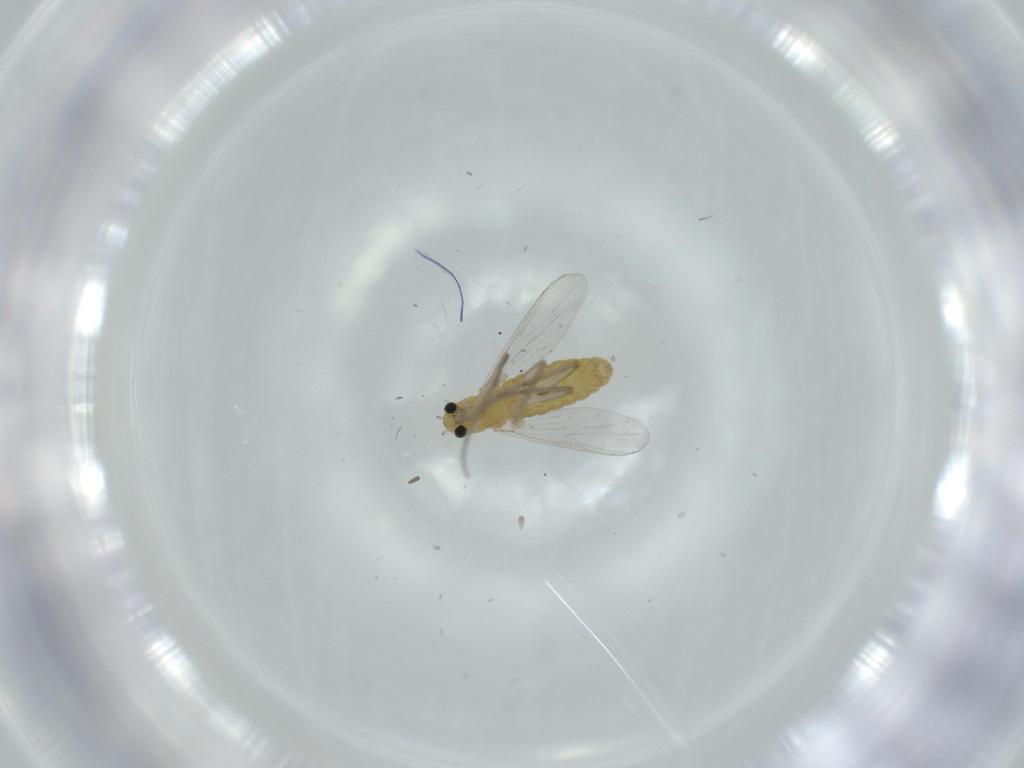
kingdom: Animalia
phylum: Arthropoda
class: Insecta
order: Diptera
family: Chironomidae
